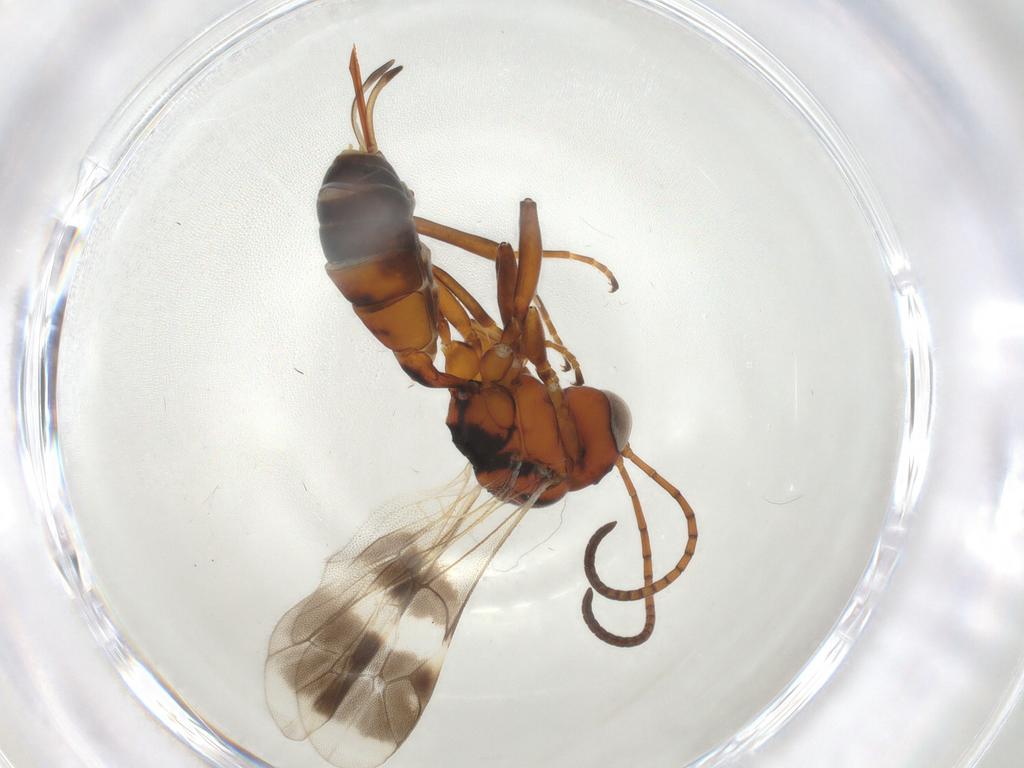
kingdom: Animalia
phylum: Arthropoda
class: Insecta
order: Hymenoptera
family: Ichneumonidae
